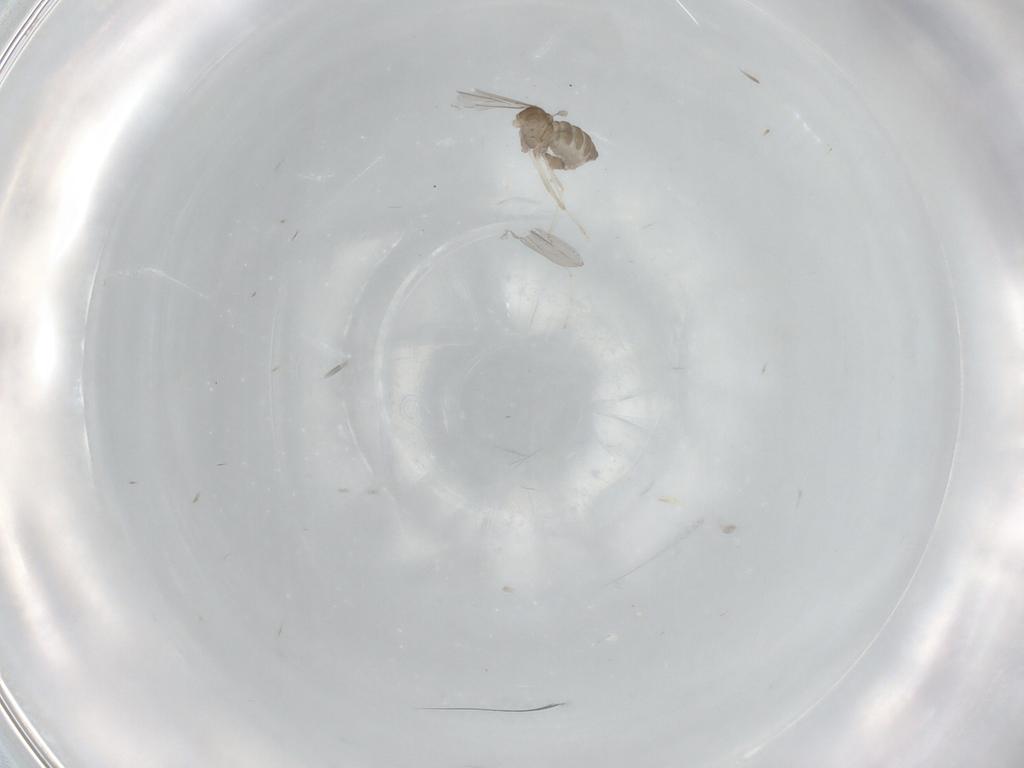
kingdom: Animalia
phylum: Arthropoda
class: Insecta
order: Diptera
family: Cecidomyiidae
